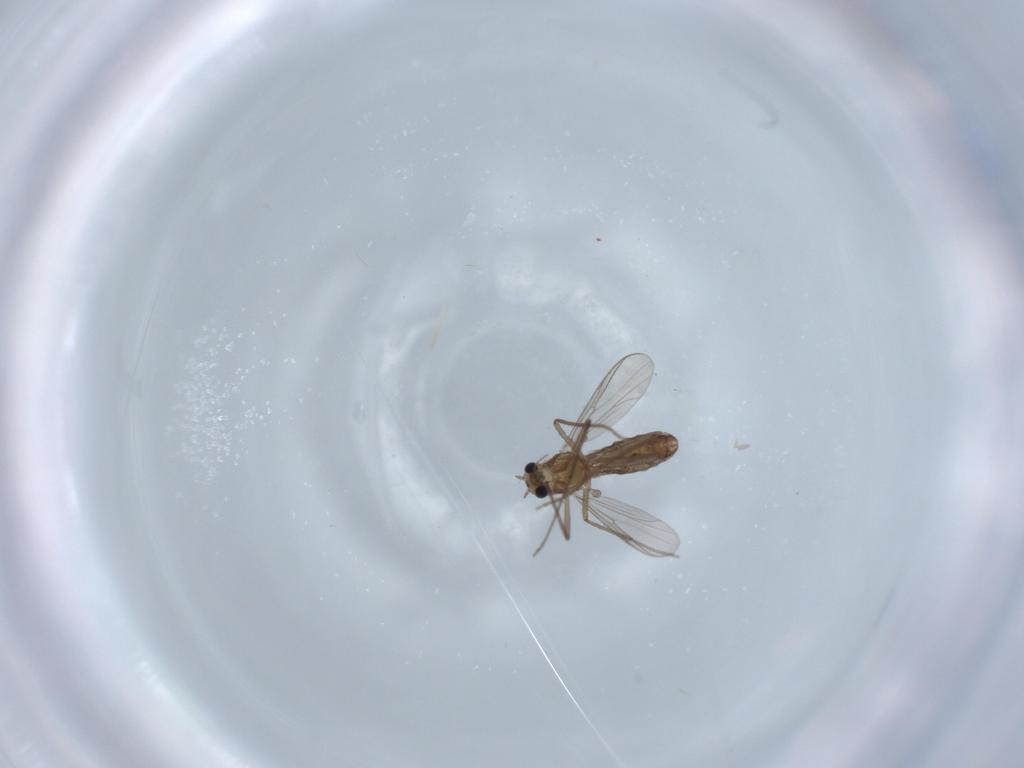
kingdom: Animalia
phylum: Arthropoda
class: Insecta
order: Diptera
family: Chironomidae
